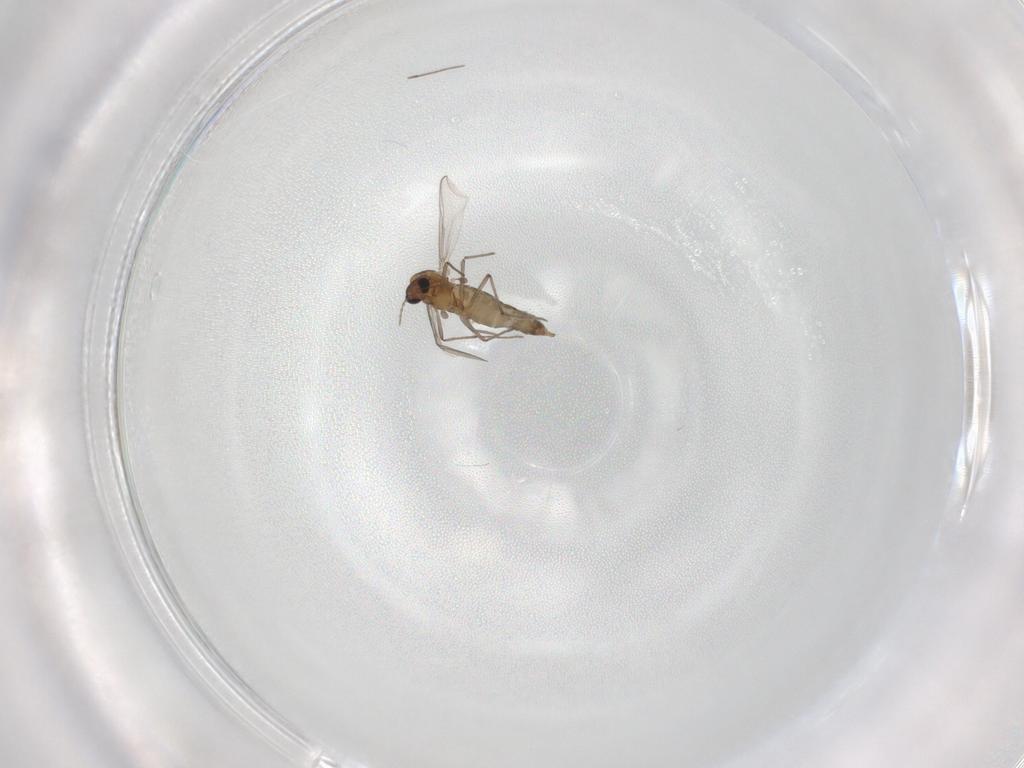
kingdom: Animalia
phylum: Arthropoda
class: Insecta
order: Diptera
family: Chironomidae
